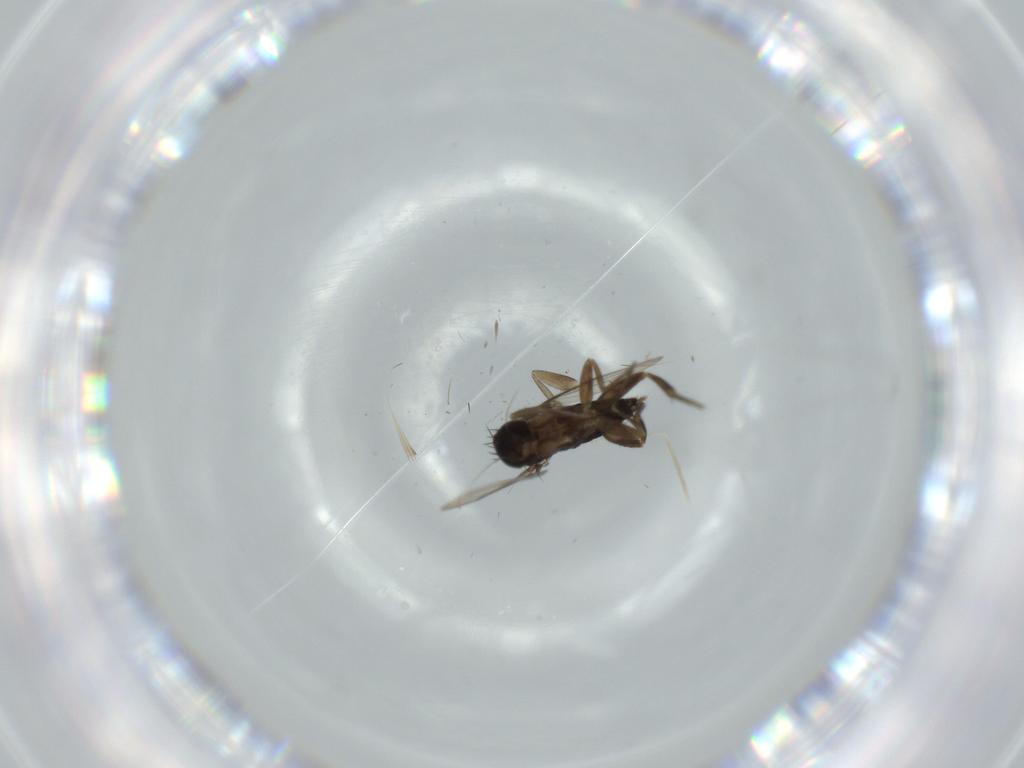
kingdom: Animalia
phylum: Arthropoda
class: Insecta
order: Diptera
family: Phoridae
